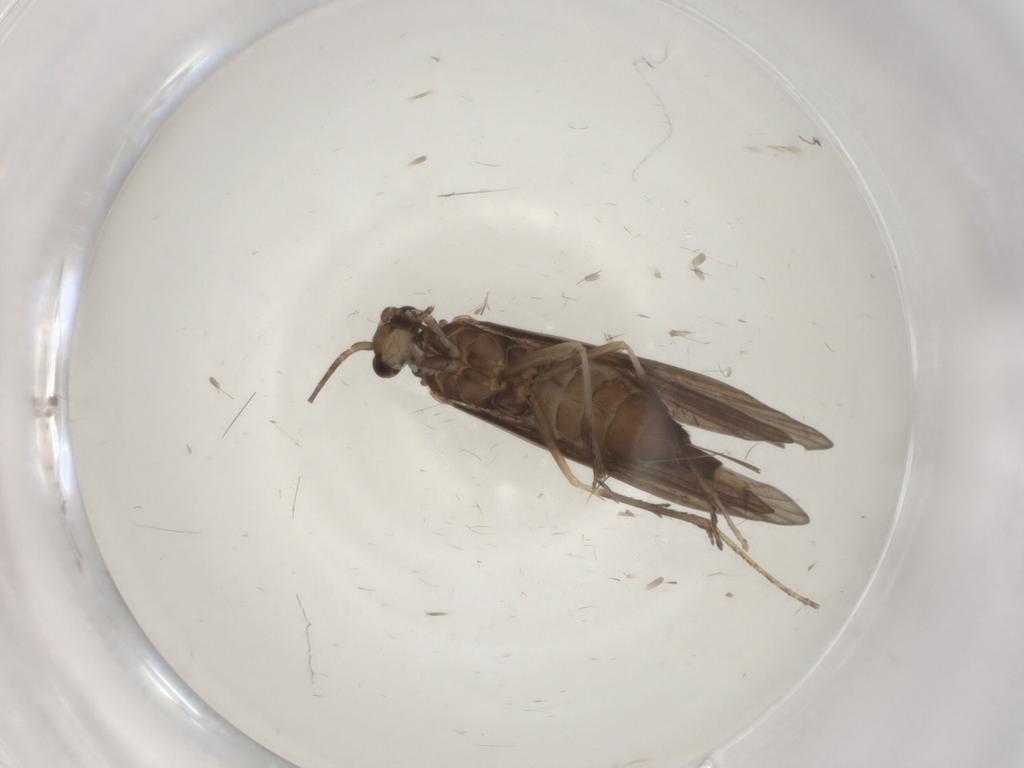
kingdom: Animalia
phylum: Arthropoda
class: Insecta
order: Trichoptera
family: Xiphocentronidae
